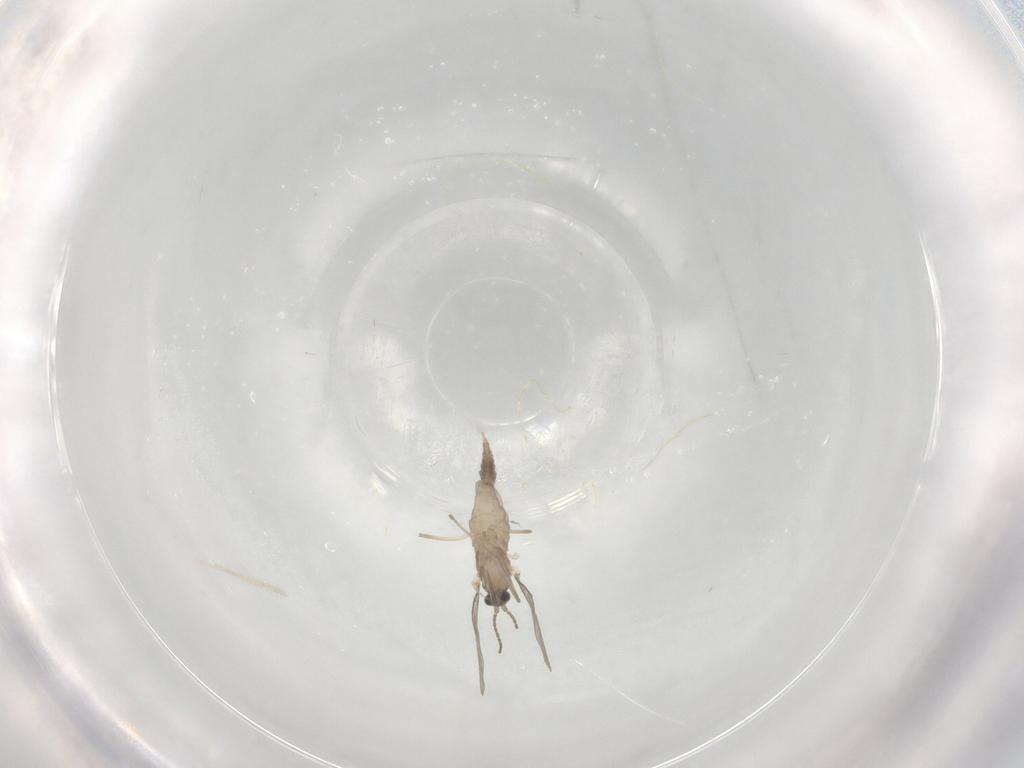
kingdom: Animalia
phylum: Arthropoda
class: Insecta
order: Diptera
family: Cecidomyiidae
